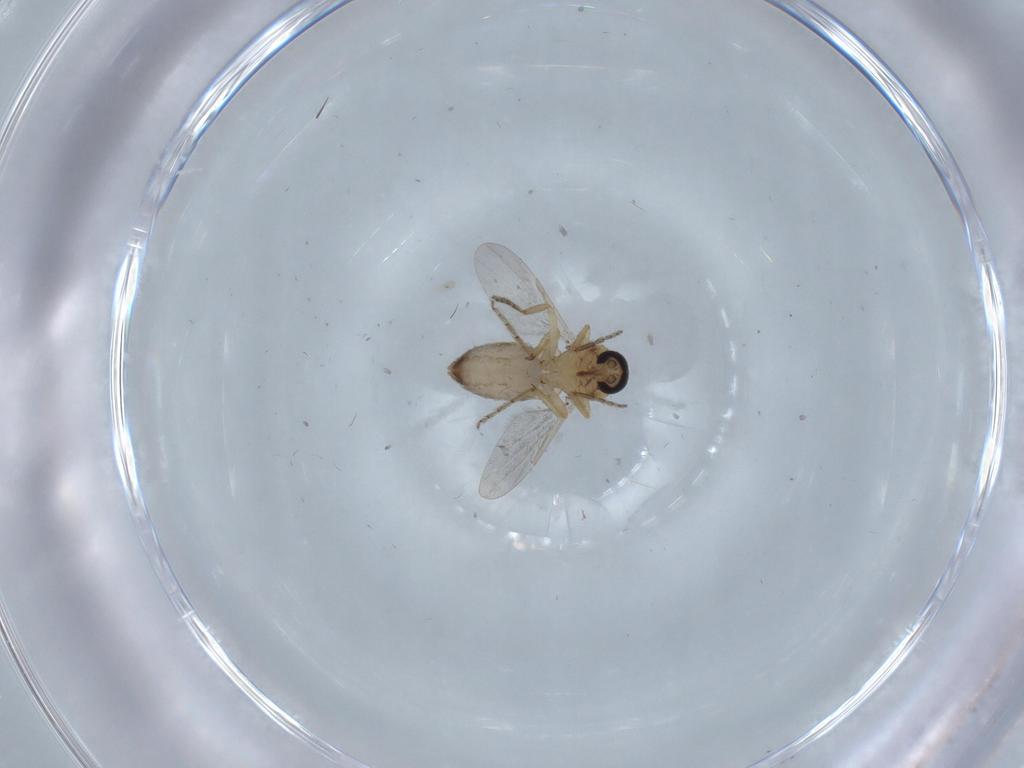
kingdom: Animalia
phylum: Arthropoda
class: Insecta
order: Diptera
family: Ceratopogonidae
